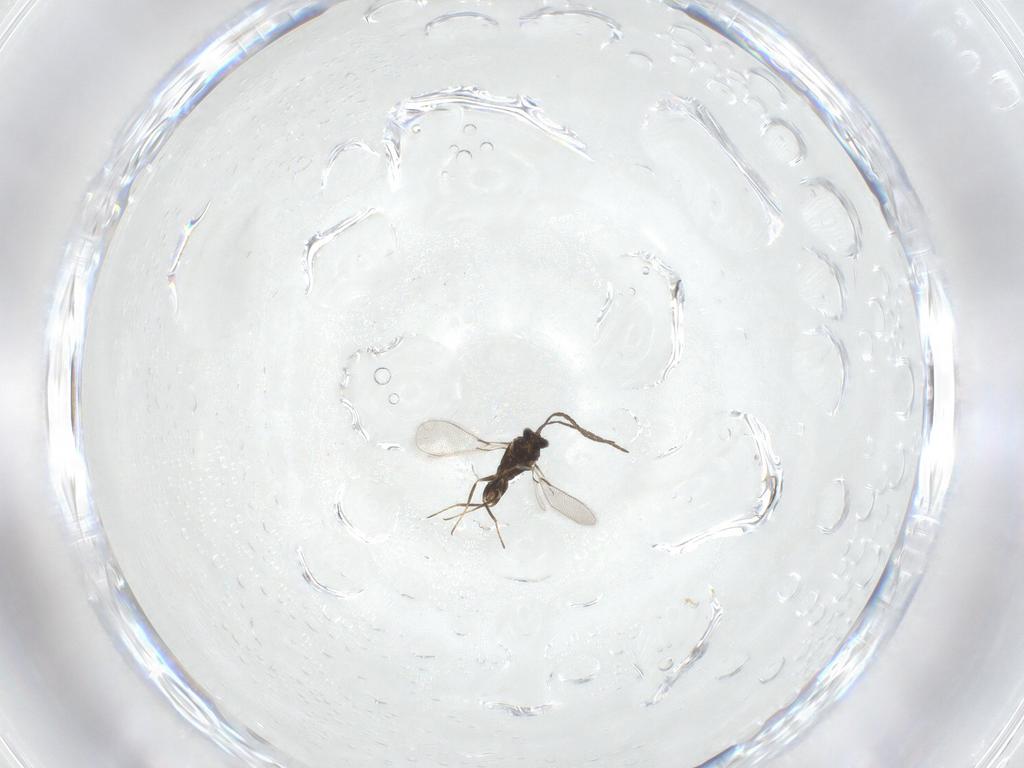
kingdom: Animalia
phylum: Arthropoda
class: Insecta
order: Hymenoptera
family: Mymaridae
